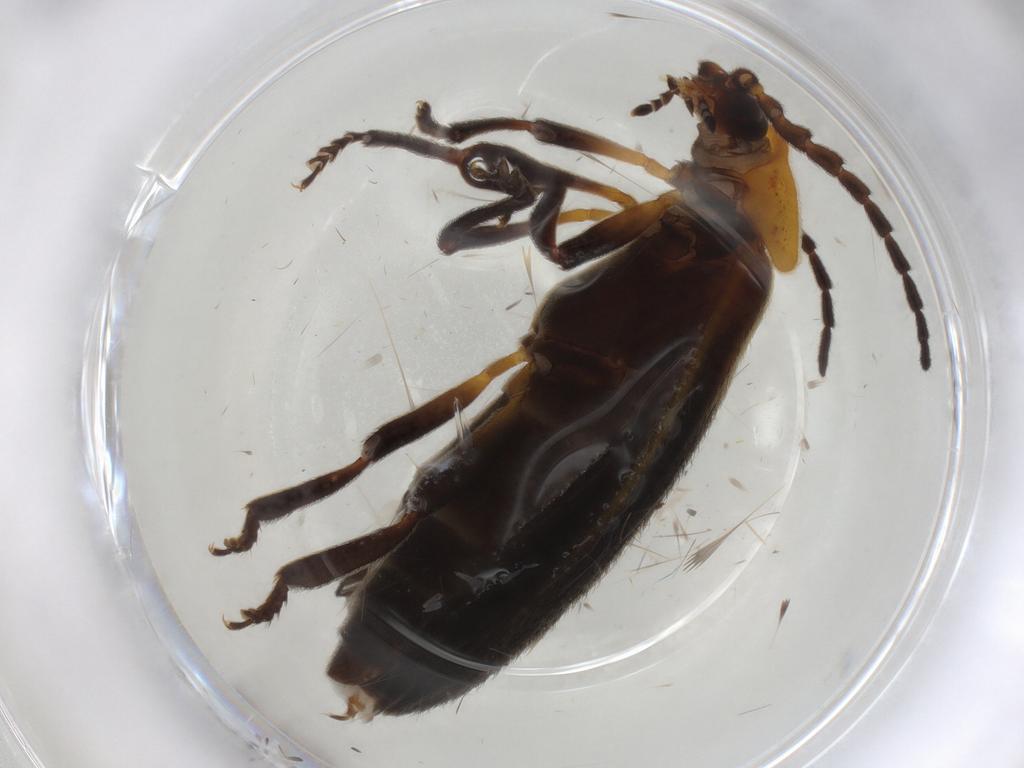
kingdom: Animalia
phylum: Arthropoda
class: Insecta
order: Coleoptera
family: Lycidae
